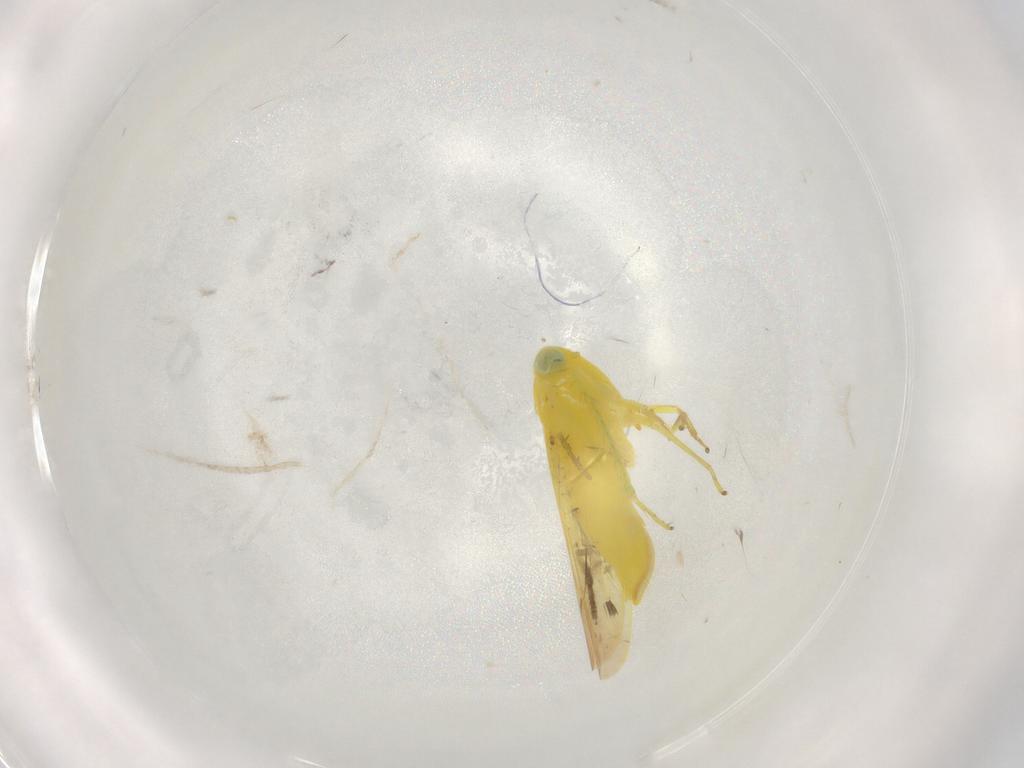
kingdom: Animalia
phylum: Arthropoda
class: Insecta
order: Hemiptera
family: Cicadellidae
